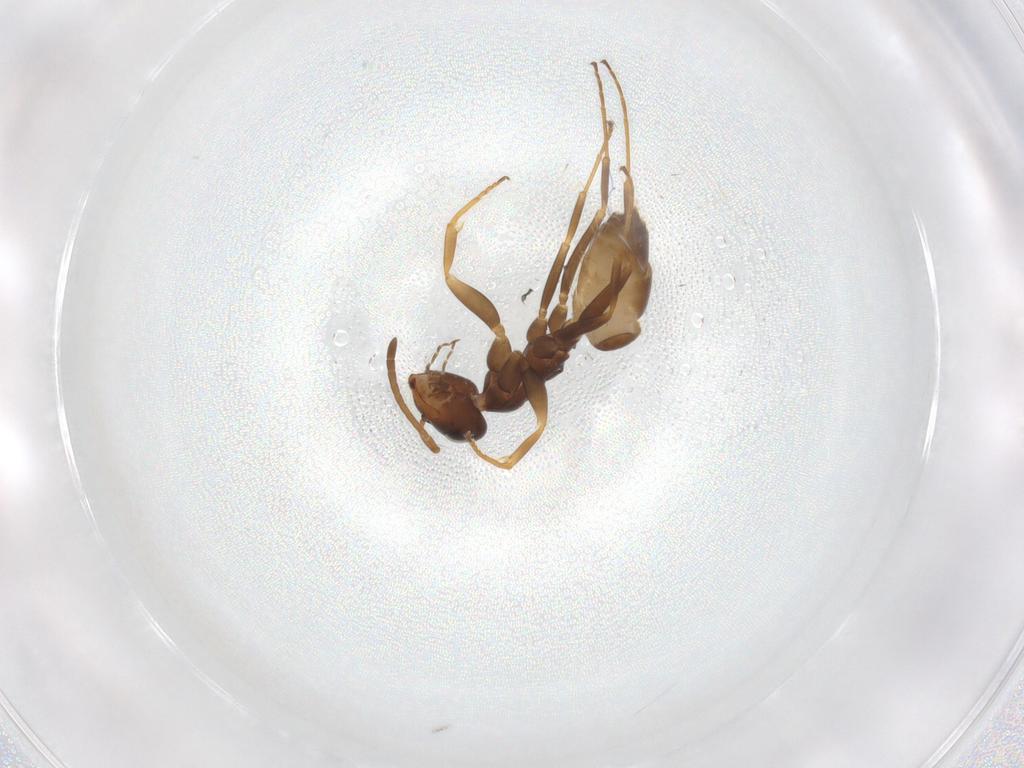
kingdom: Animalia
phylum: Arthropoda
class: Insecta
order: Hymenoptera
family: Formicidae
